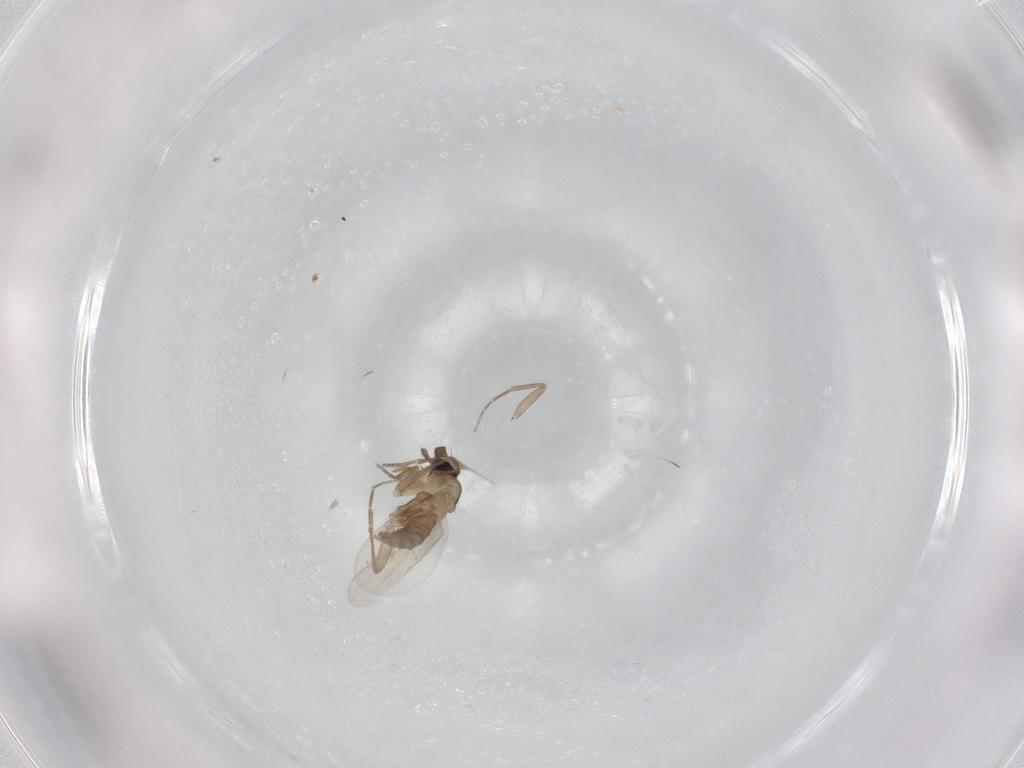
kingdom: Animalia
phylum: Arthropoda
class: Insecta
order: Diptera
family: Phoridae
